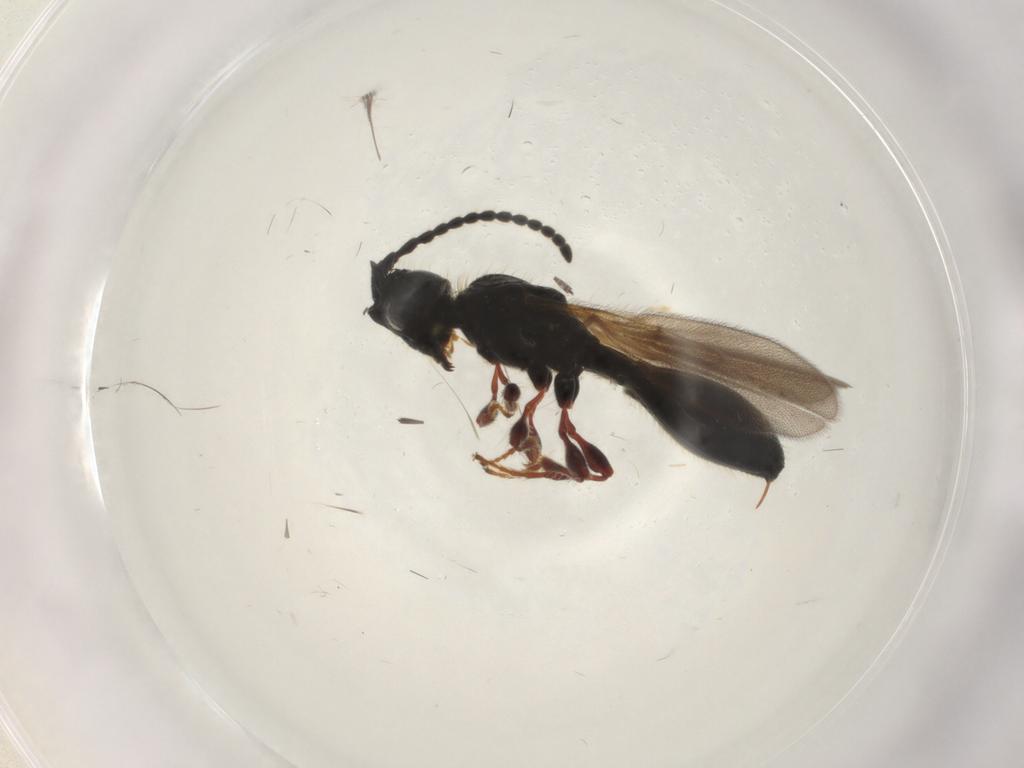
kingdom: Animalia
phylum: Arthropoda
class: Insecta
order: Hymenoptera
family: Diapriidae
